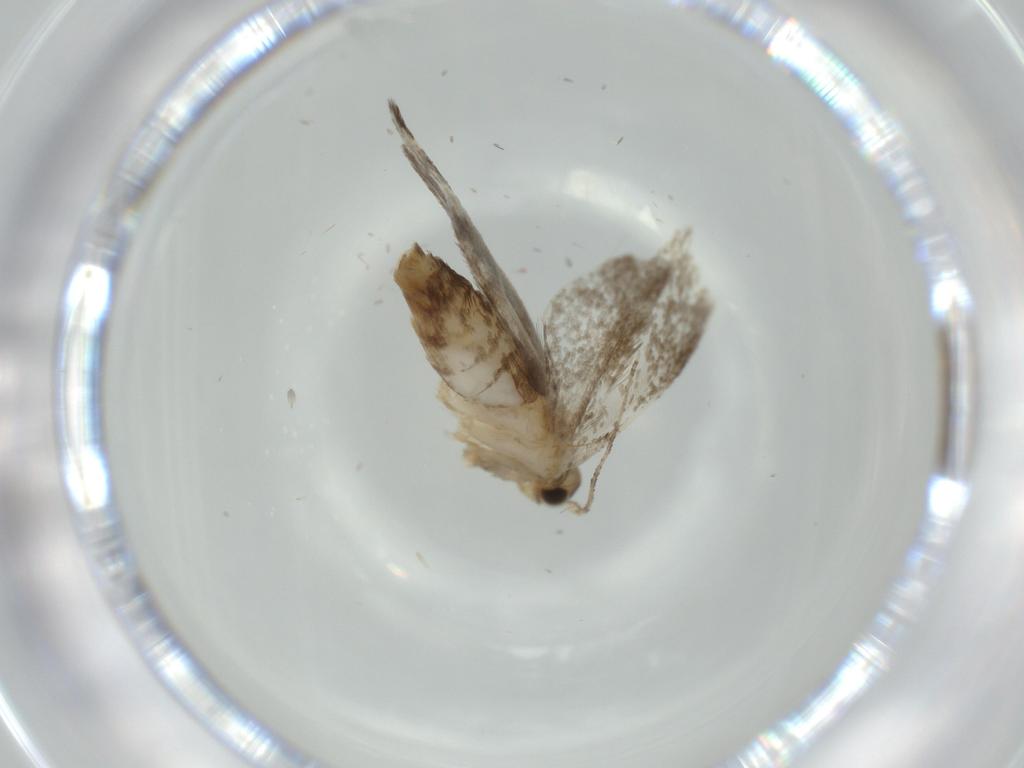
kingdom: Animalia
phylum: Arthropoda
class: Insecta
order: Lepidoptera
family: Tineidae
